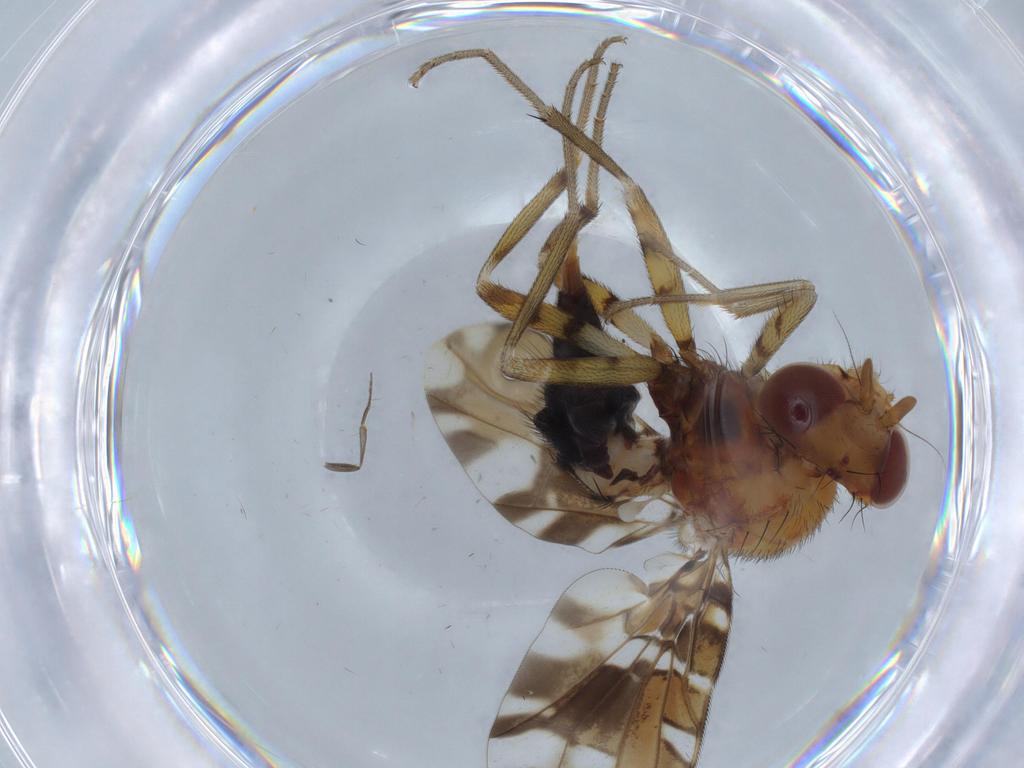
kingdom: Animalia
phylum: Arthropoda
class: Insecta
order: Diptera
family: Ulidiidae
